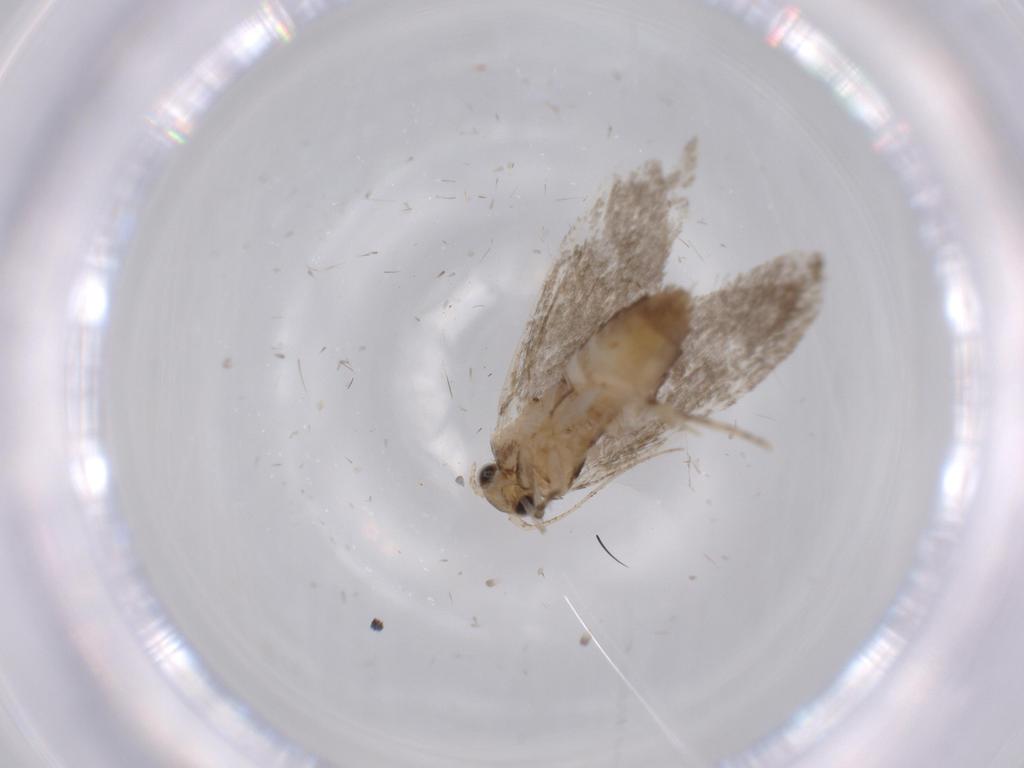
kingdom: Animalia
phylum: Arthropoda
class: Insecta
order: Lepidoptera
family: Tineidae
